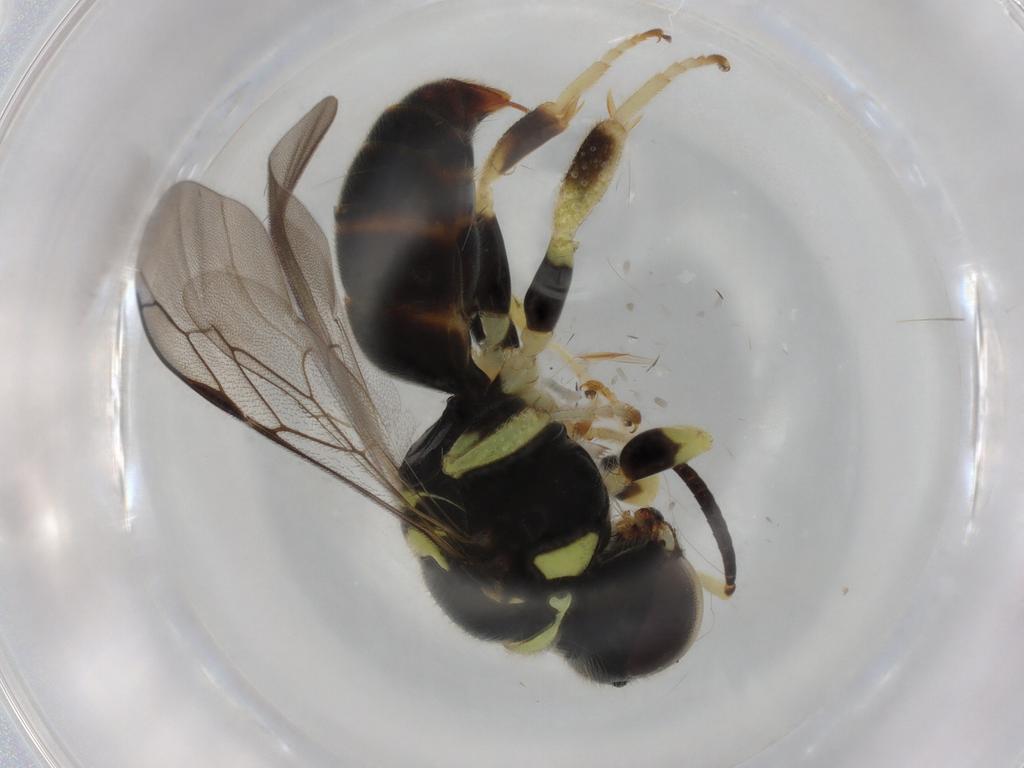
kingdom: Animalia
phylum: Arthropoda
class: Insecta
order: Hymenoptera
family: Crabronidae
